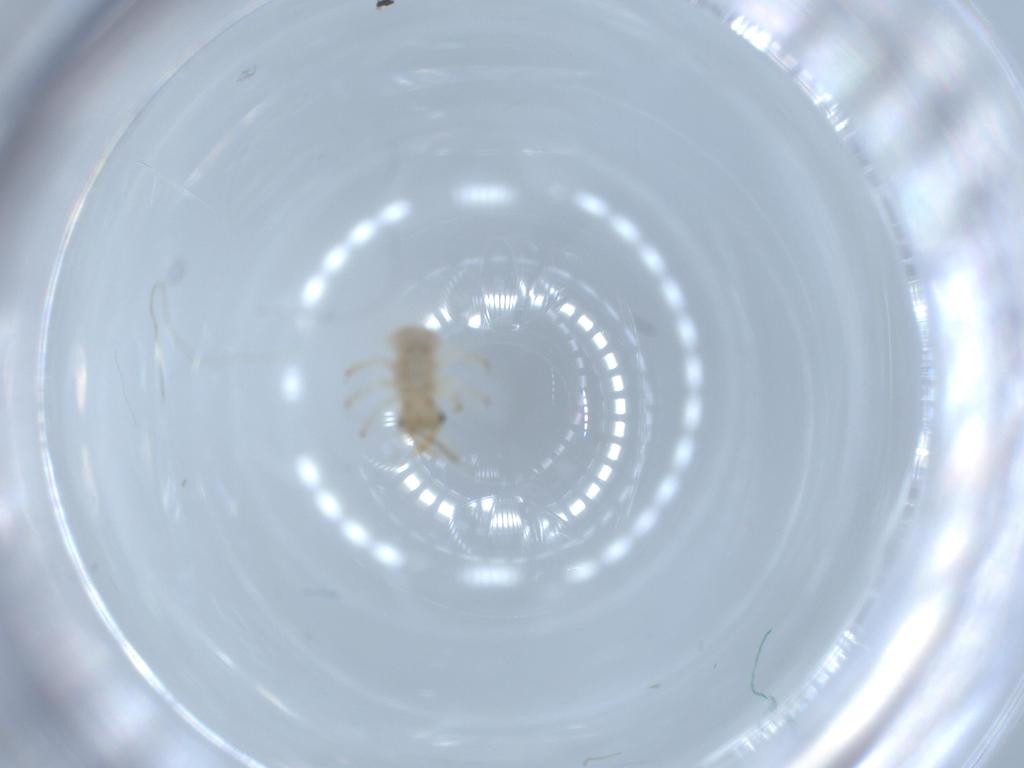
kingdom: Animalia
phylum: Arthropoda
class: Insecta
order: Neuroptera
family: Chrysopidae
